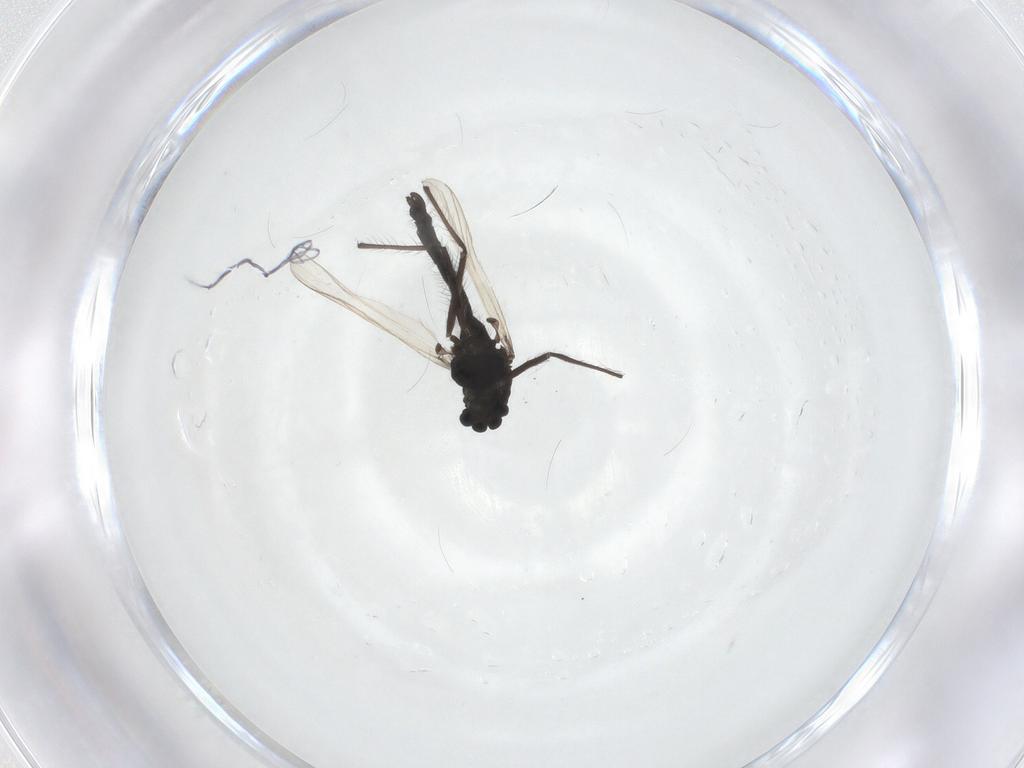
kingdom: Animalia
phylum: Arthropoda
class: Insecta
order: Diptera
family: Chironomidae
